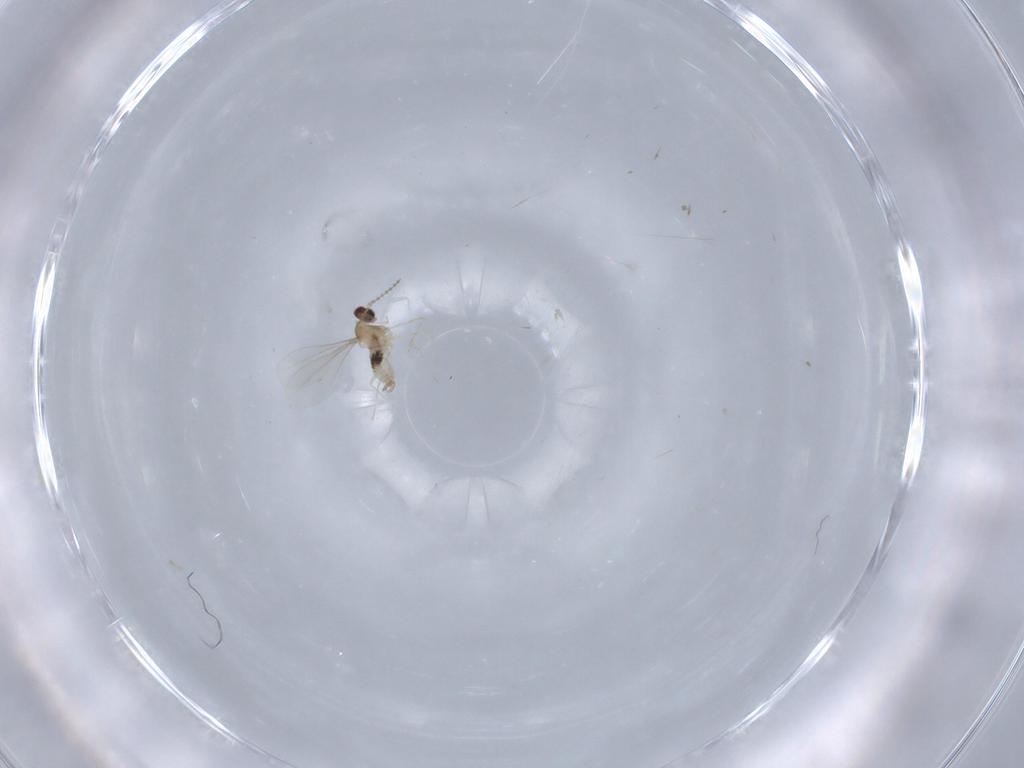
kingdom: Animalia
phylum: Arthropoda
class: Insecta
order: Diptera
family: Cecidomyiidae
